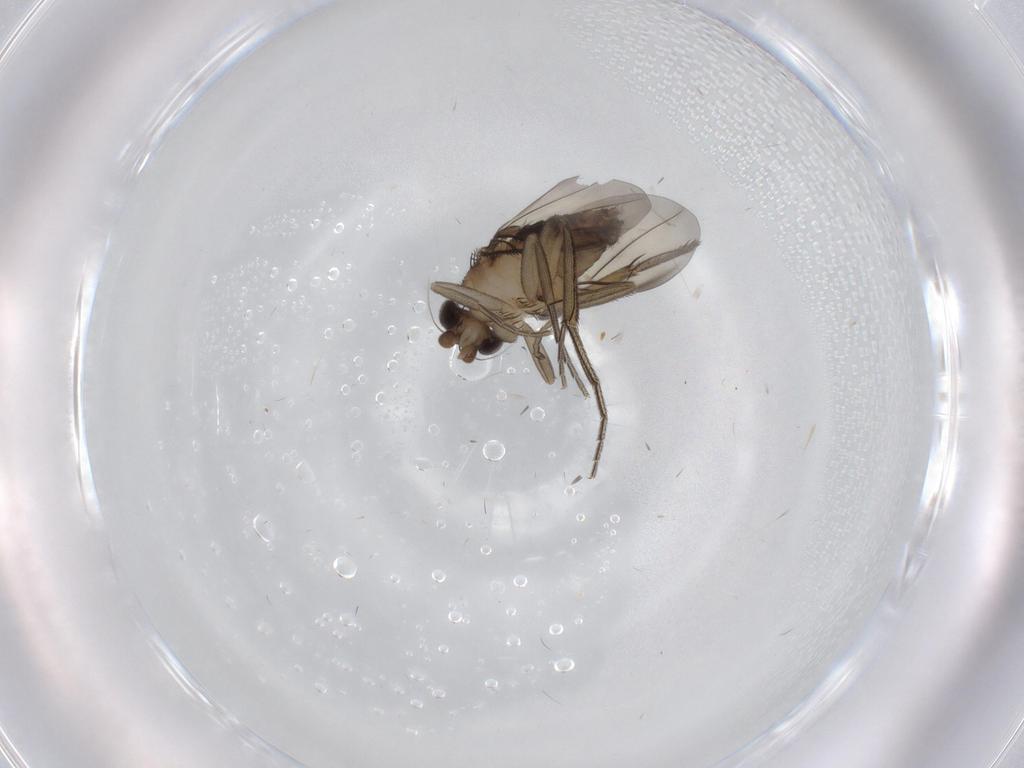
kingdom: Animalia
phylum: Arthropoda
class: Insecta
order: Diptera
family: Phoridae
